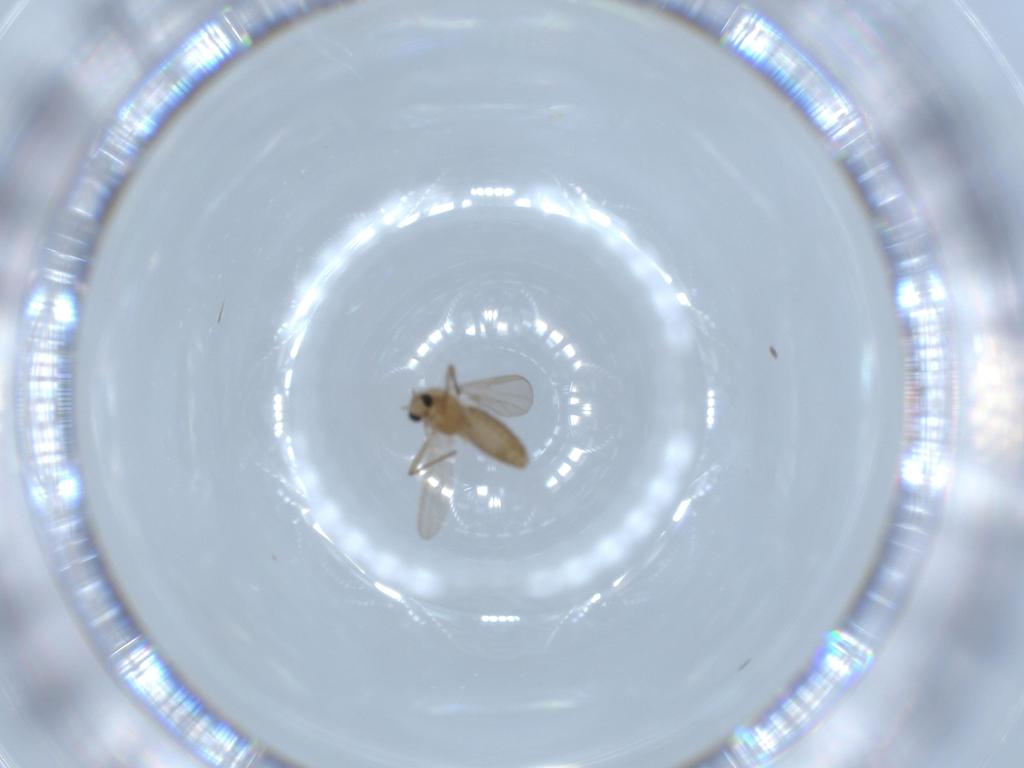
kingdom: Animalia
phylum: Arthropoda
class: Insecta
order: Diptera
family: Chironomidae
